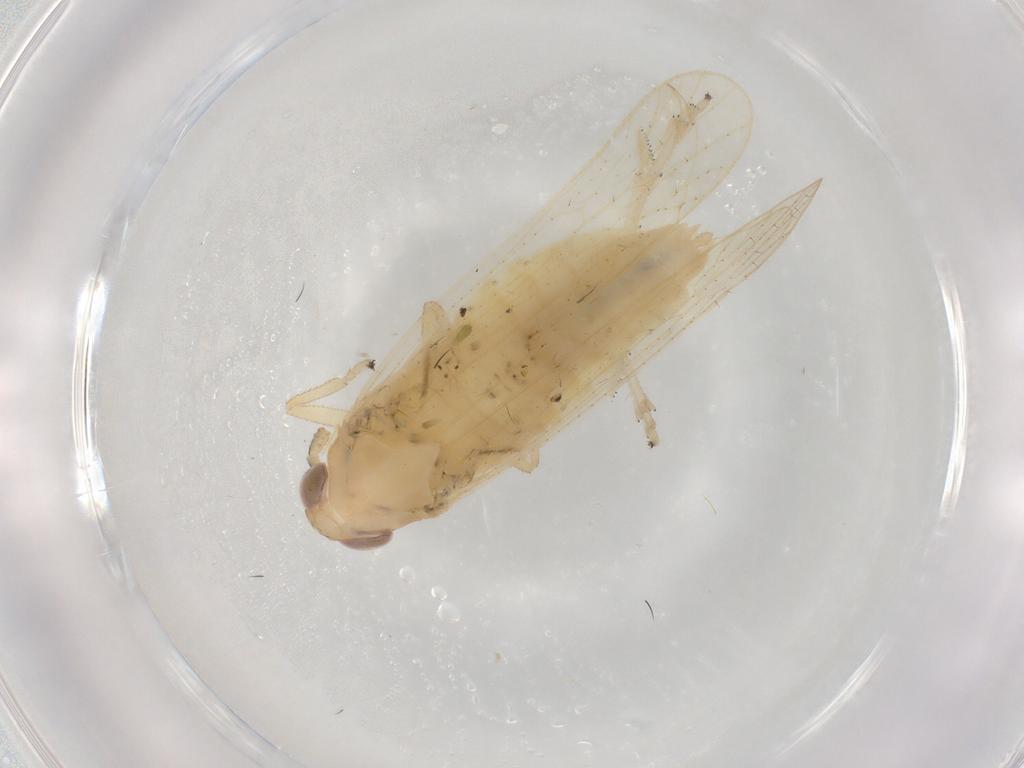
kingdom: Animalia
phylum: Arthropoda
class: Insecta
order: Hemiptera
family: Delphacidae
